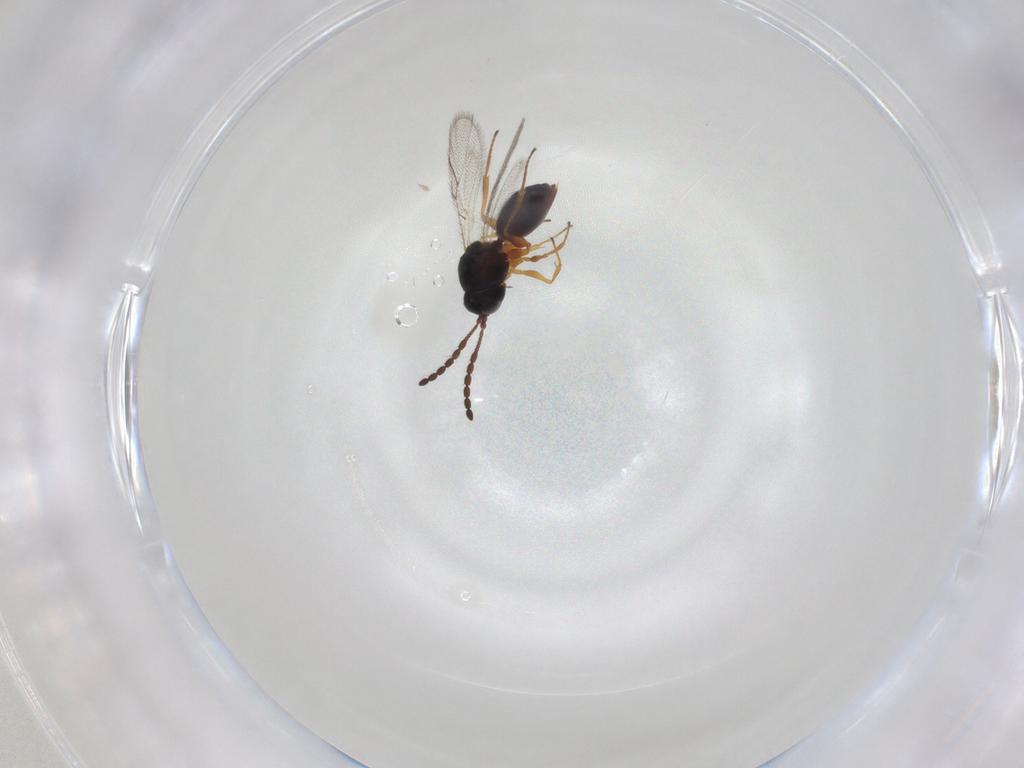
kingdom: Animalia
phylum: Arthropoda
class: Insecta
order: Hymenoptera
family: Figitidae
